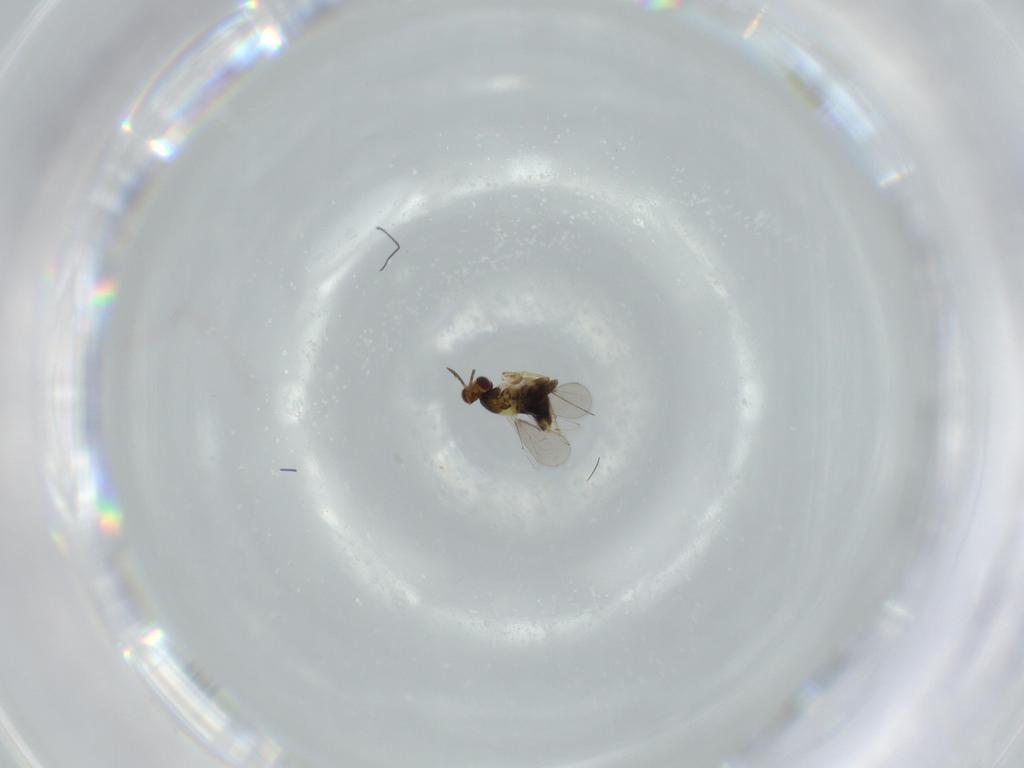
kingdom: Animalia
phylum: Arthropoda
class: Insecta
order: Hymenoptera
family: Aphelinidae
